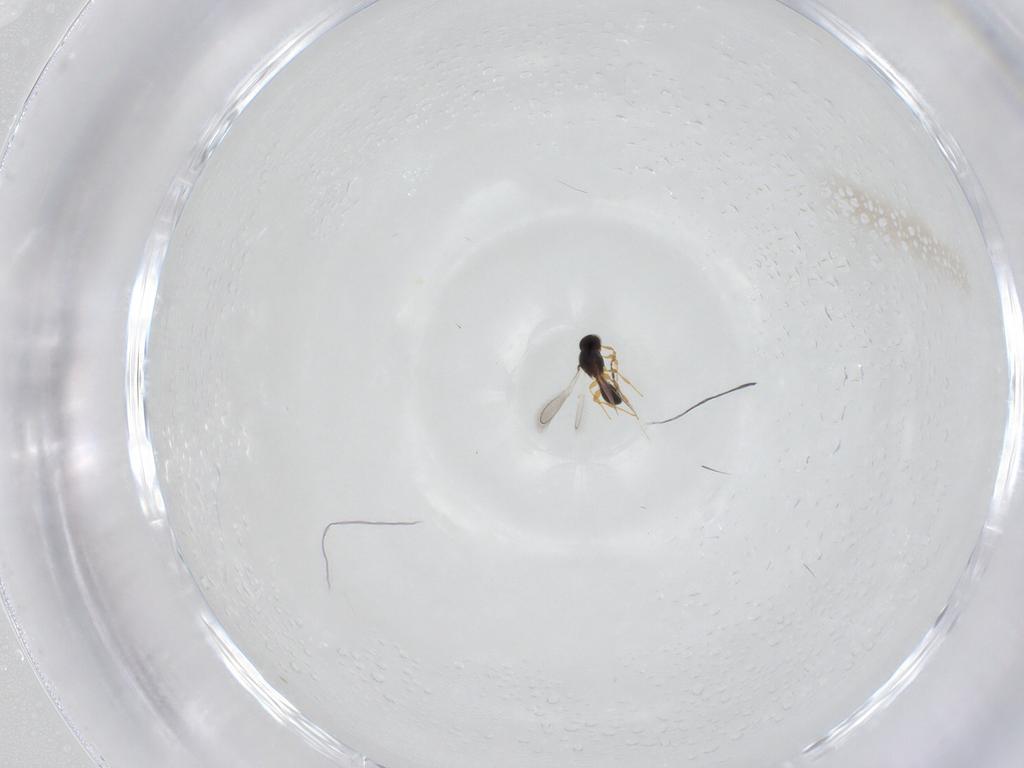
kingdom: Animalia
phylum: Arthropoda
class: Insecta
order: Hymenoptera
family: Platygastridae
